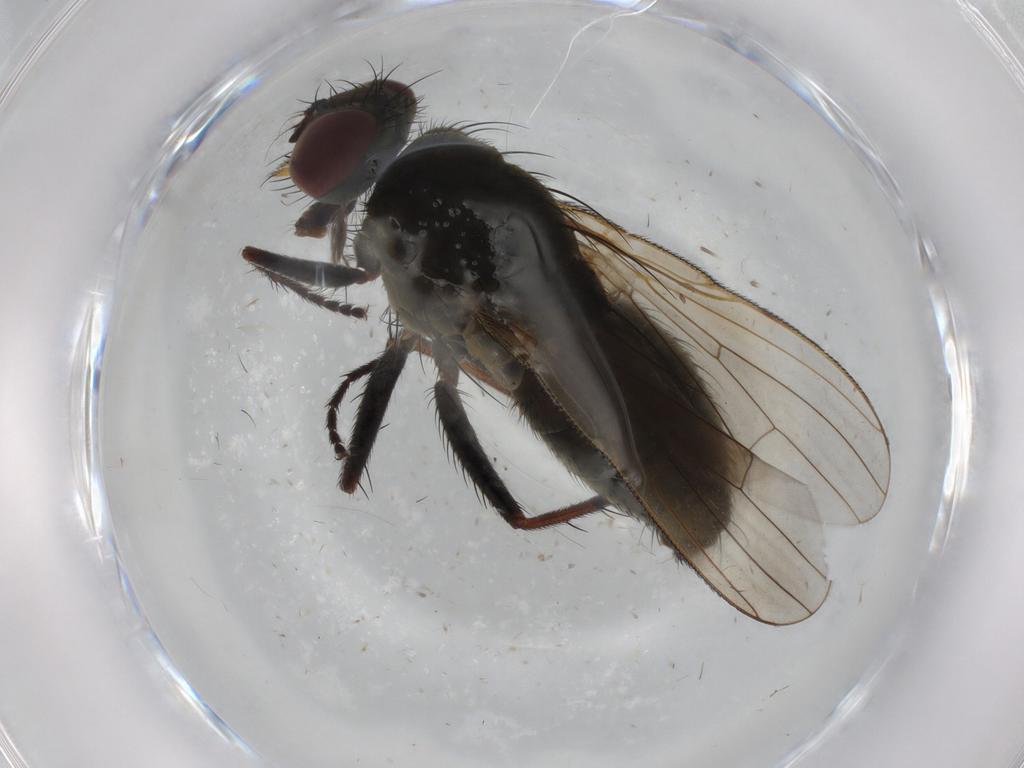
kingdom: Animalia
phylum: Arthropoda
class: Insecta
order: Diptera
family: Muscidae
